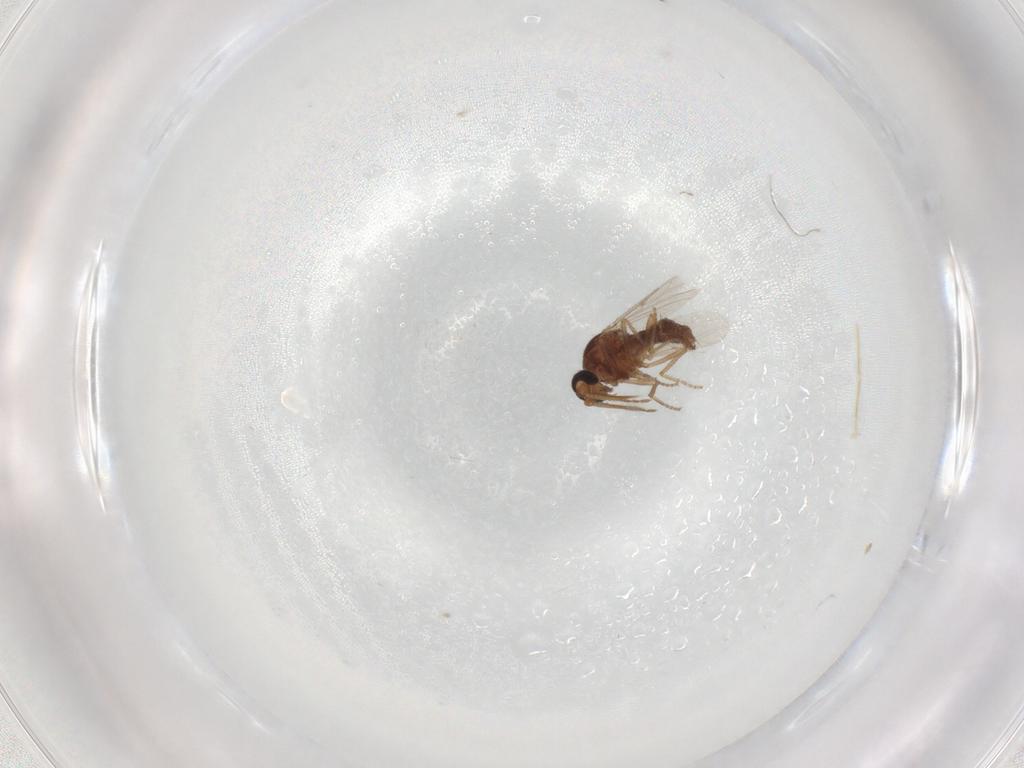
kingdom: Animalia
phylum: Arthropoda
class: Insecta
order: Diptera
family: Ceratopogonidae
